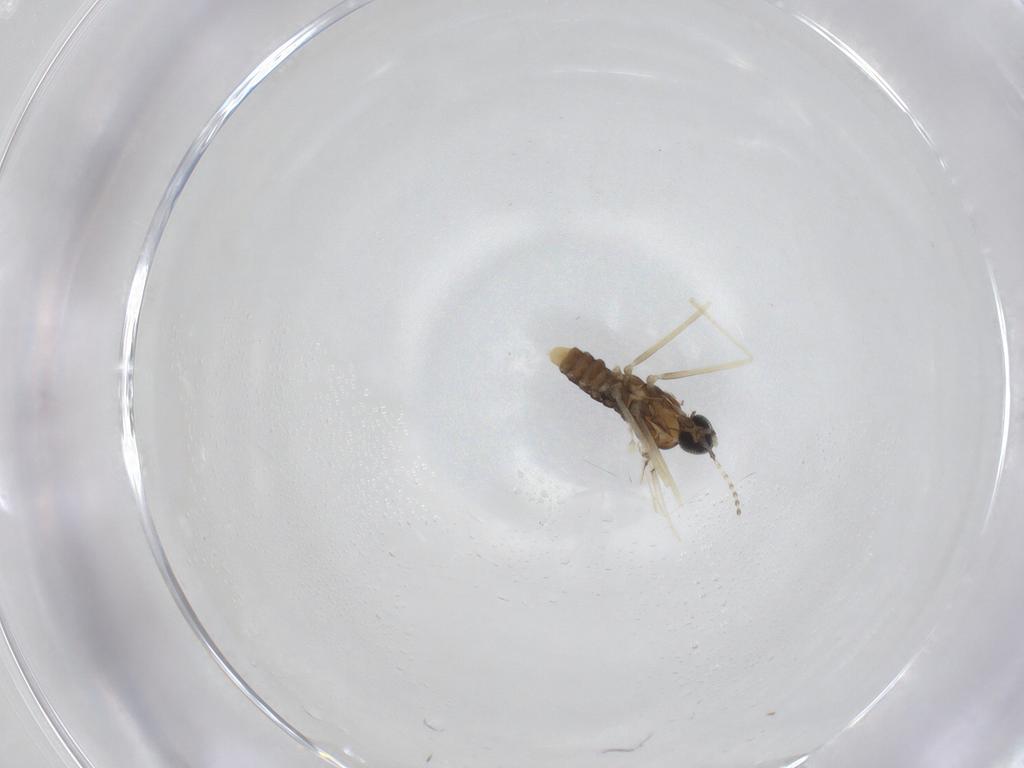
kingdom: Animalia
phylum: Arthropoda
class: Insecta
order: Diptera
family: Cecidomyiidae
